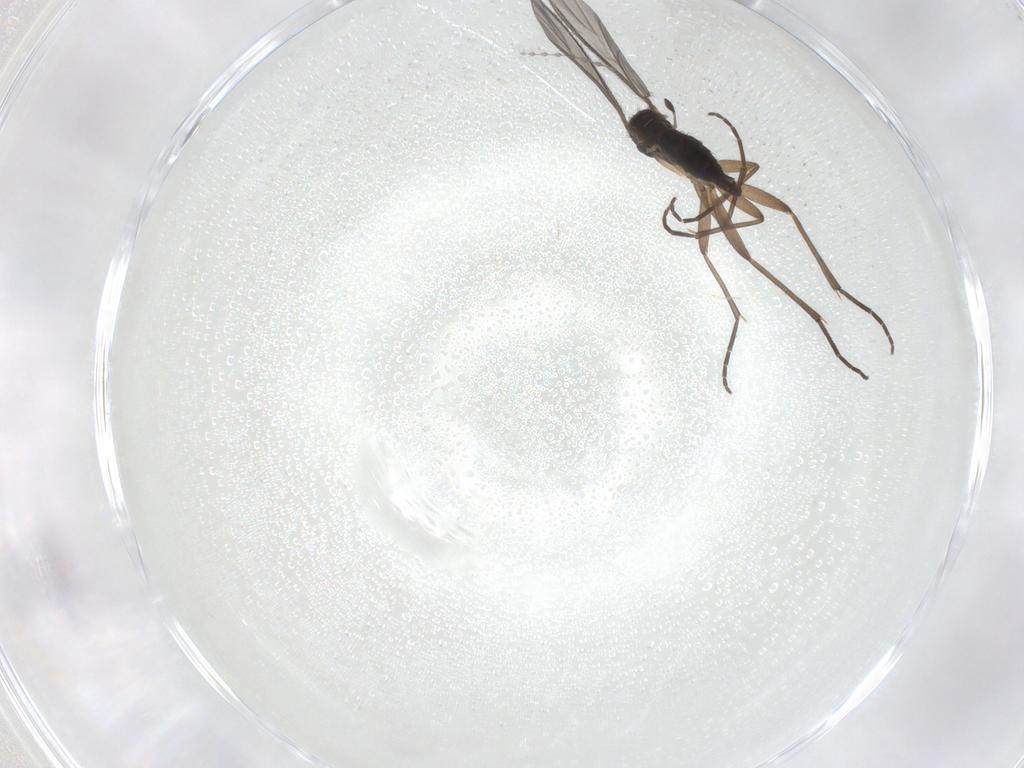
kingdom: Animalia
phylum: Arthropoda
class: Insecta
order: Diptera
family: Sciaridae
